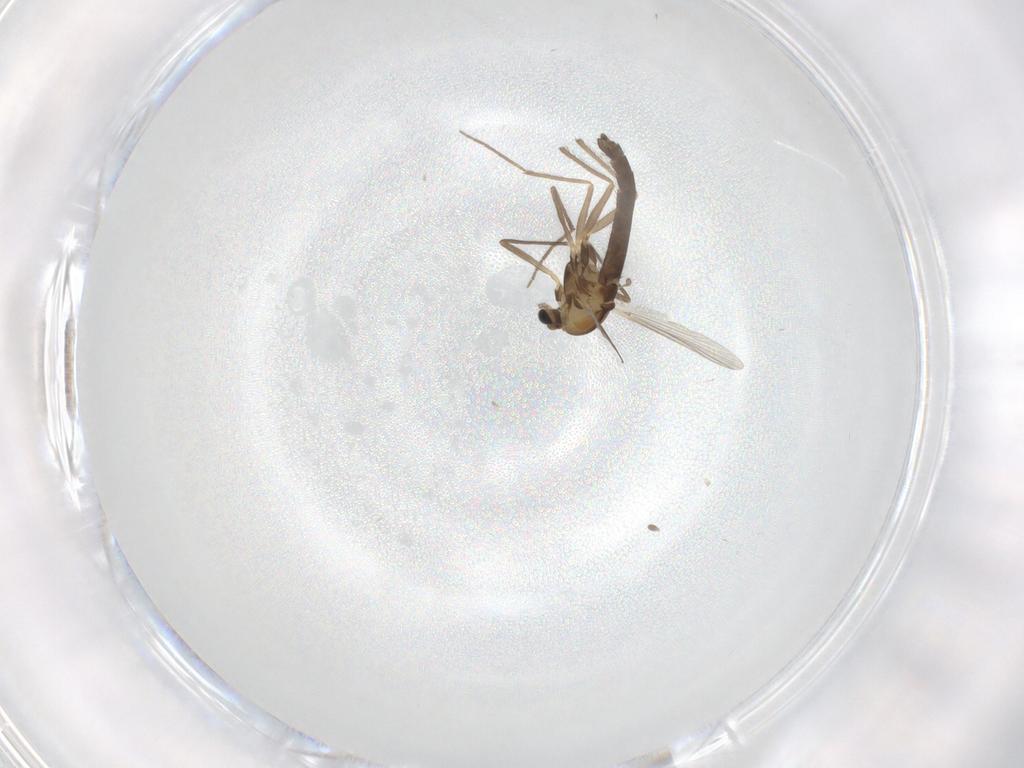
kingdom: Animalia
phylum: Arthropoda
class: Insecta
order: Diptera
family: Chironomidae
